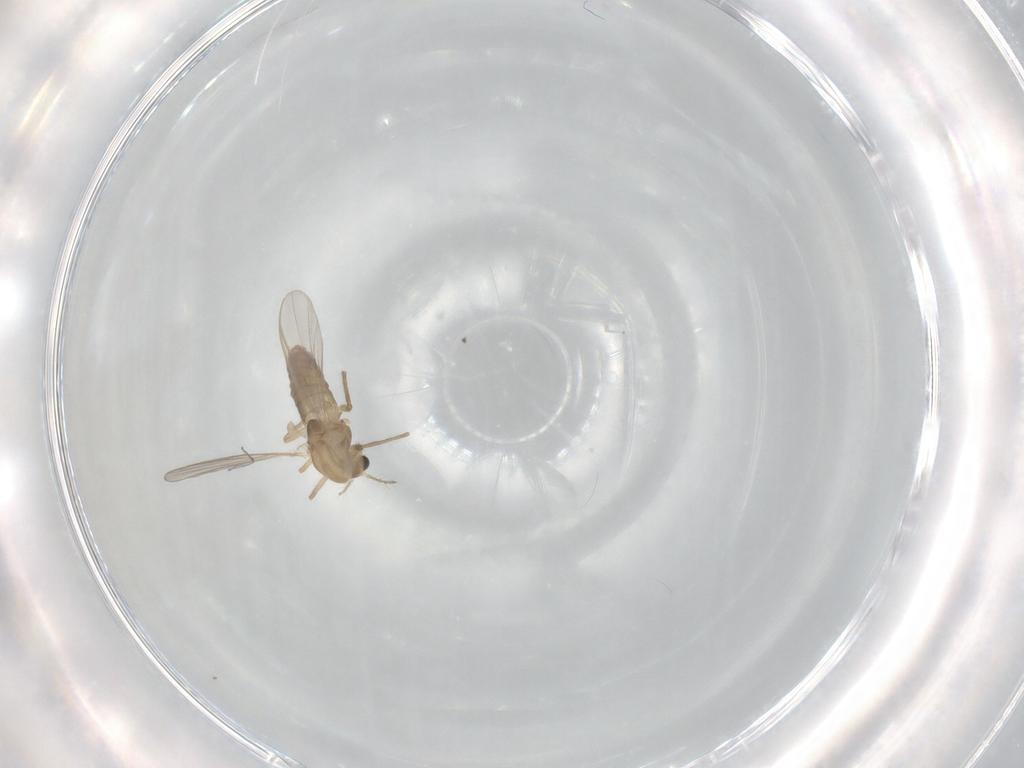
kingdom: Animalia
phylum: Arthropoda
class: Insecta
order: Diptera
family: Chironomidae
